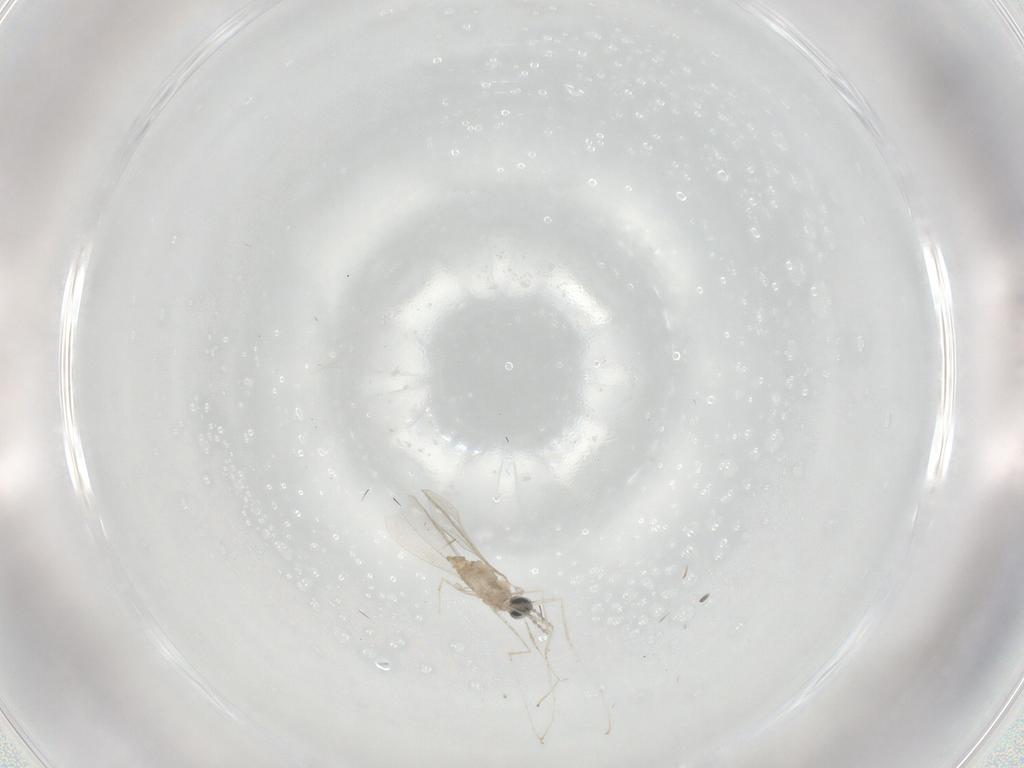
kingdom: Animalia
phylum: Arthropoda
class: Insecta
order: Diptera
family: Cecidomyiidae
